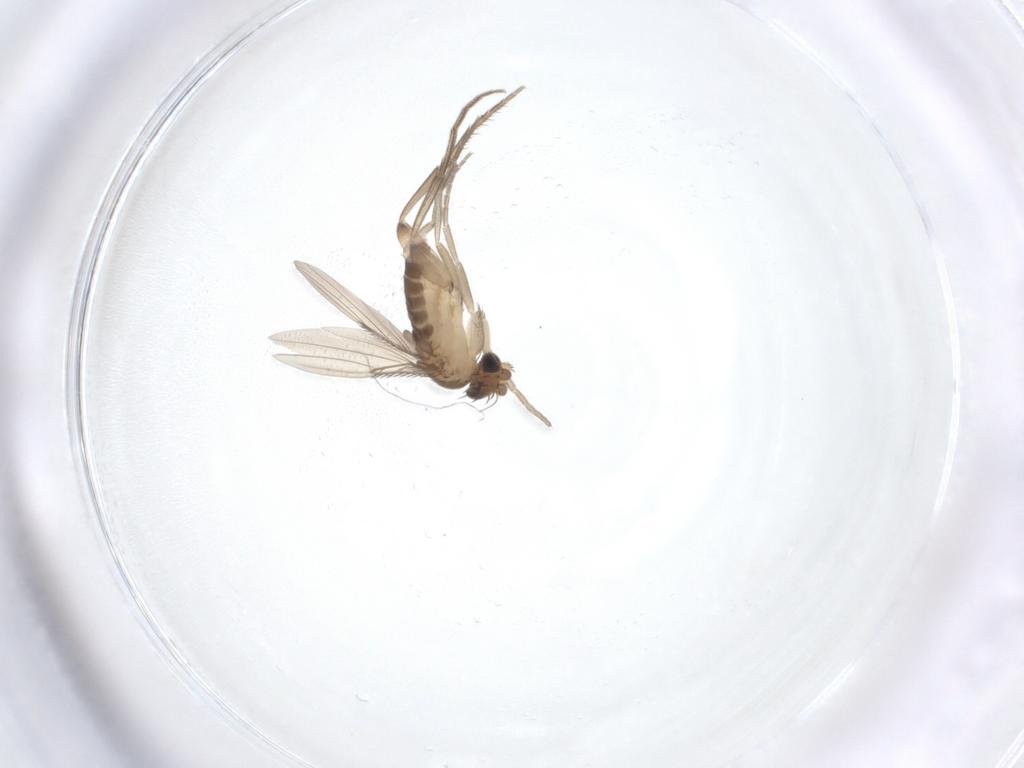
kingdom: Animalia
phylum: Arthropoda
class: Insecta
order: Diptera
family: Phoridae
